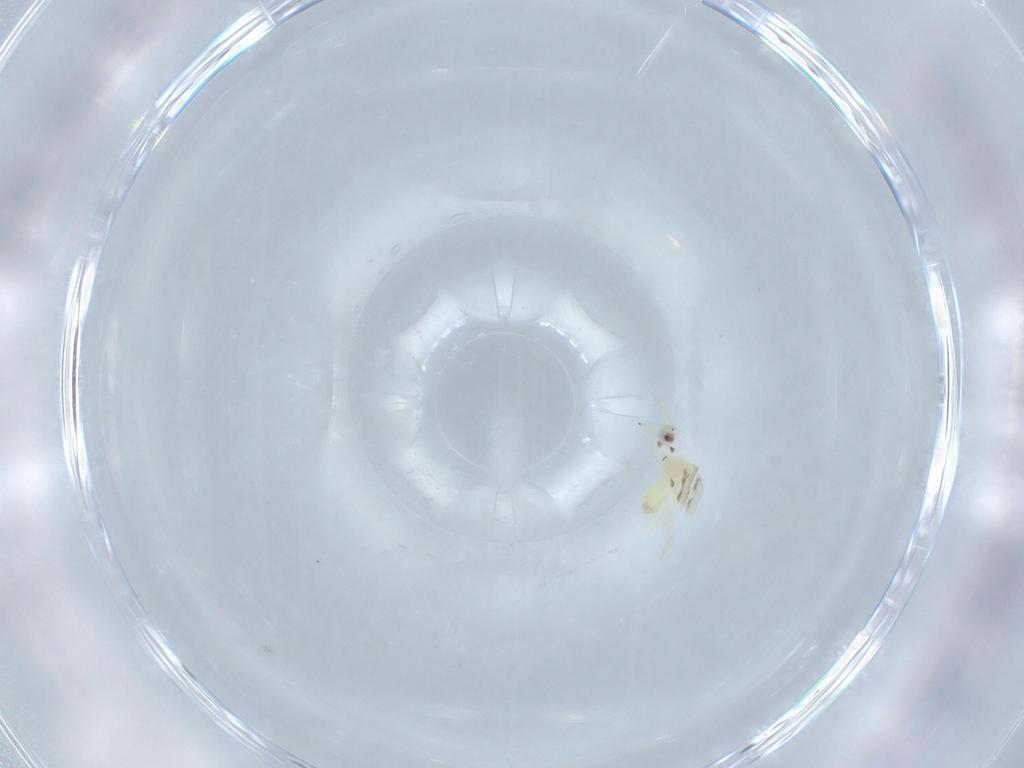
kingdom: Animalia
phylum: Arthropoda
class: Insecta
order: Hemiptera
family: Aleyrodidae
